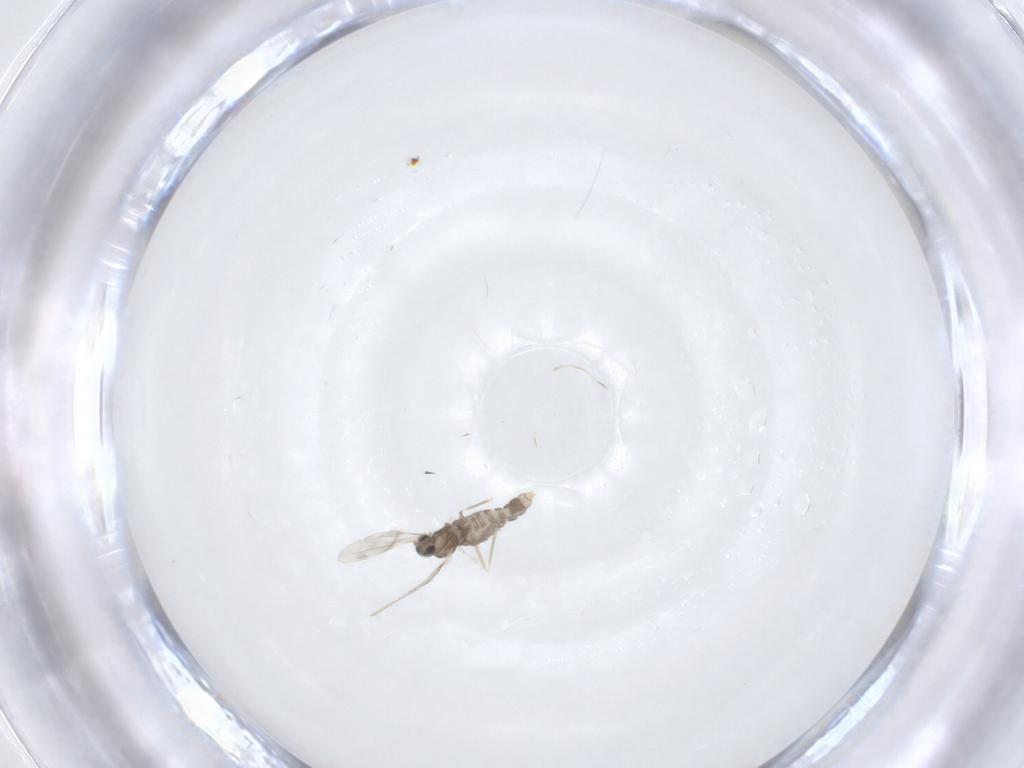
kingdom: Animalia
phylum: Arthropoda
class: Insecta
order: Diptera
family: Cecidomyiidae
